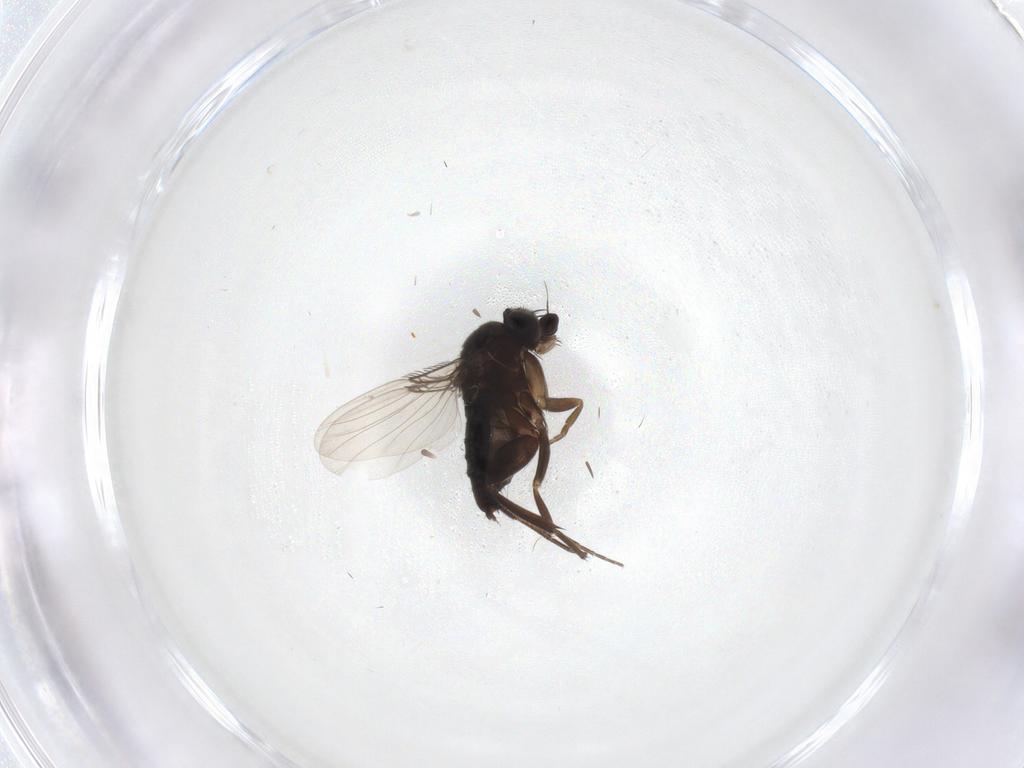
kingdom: Animalia
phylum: Arthropoda
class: Insecta
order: Diptera
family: Phoridae
